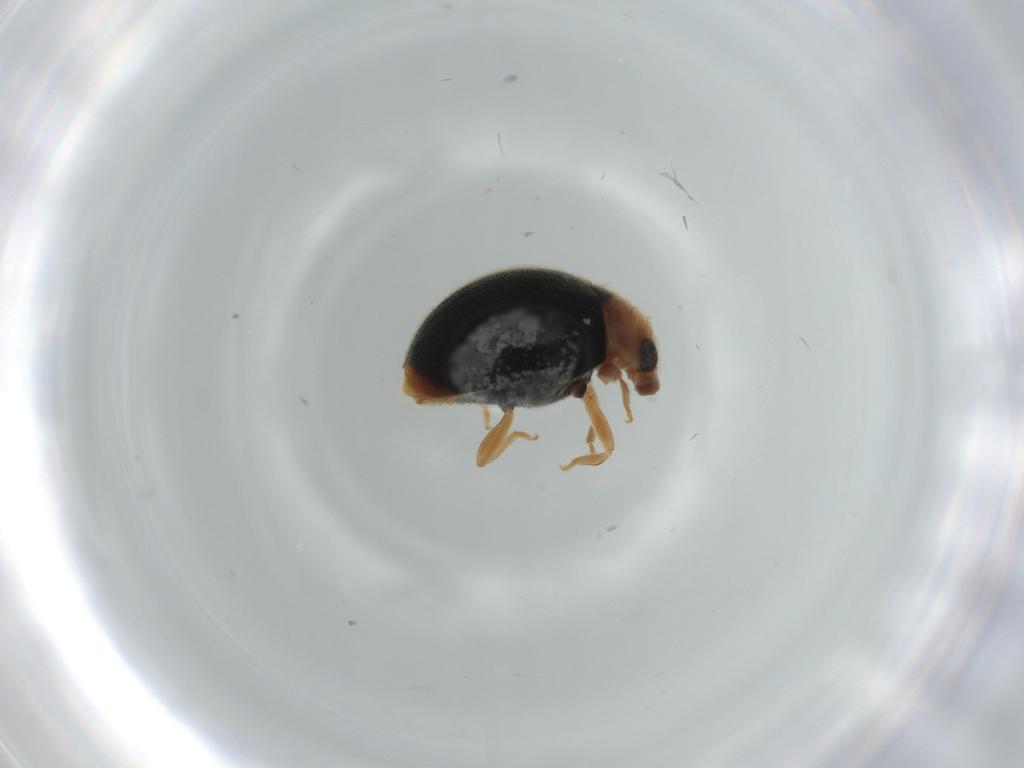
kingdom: Animalia
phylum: Arthropoda
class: Insecta
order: Coleoptera
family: Coccinellidae
